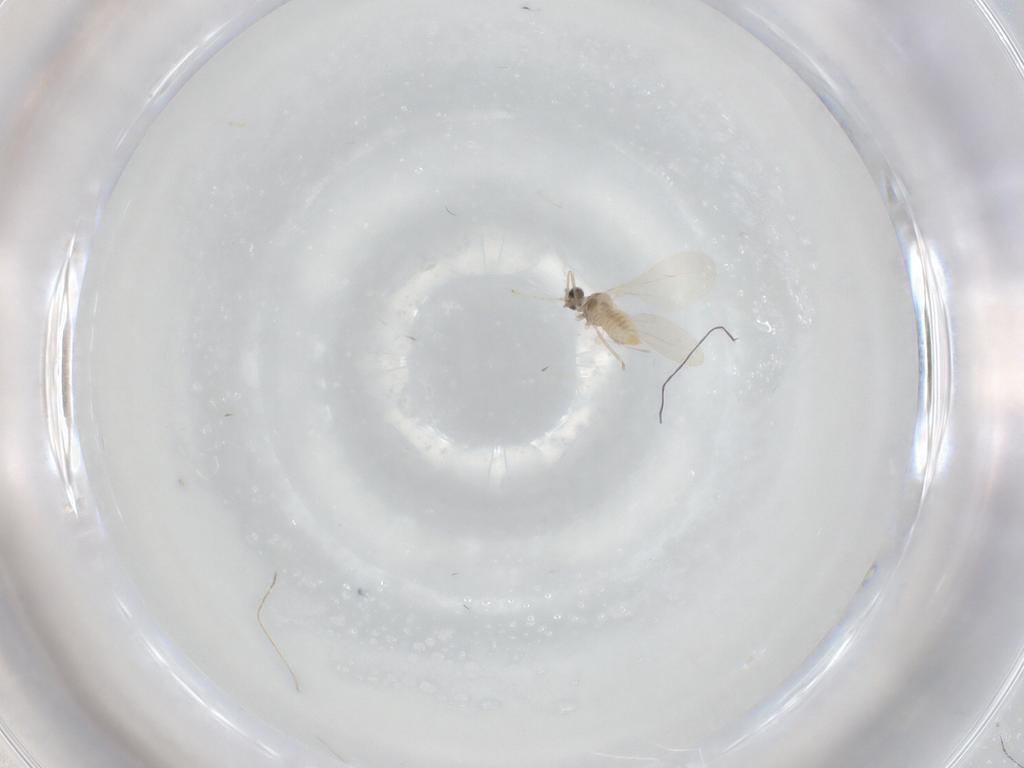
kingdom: Animalia
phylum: Arthropoda
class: Insecta
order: Diptera
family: Cecidomyiidae
